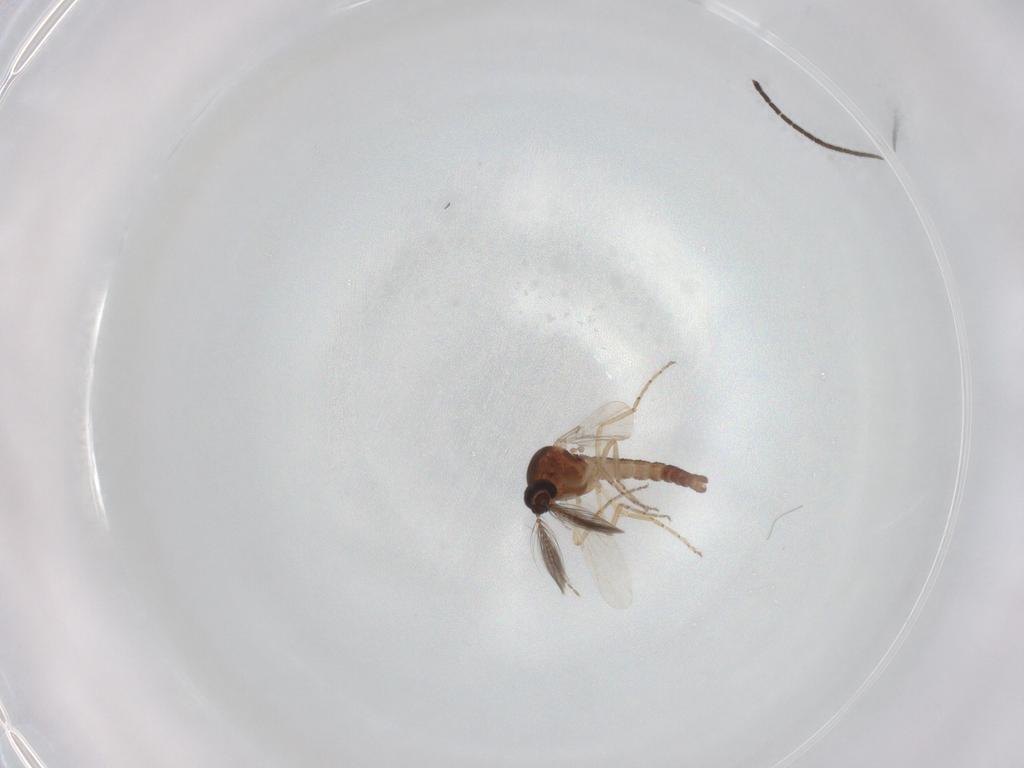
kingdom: Animalia
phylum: Arthropoda
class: Insecta
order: Diptera
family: Ceratopogonidae
